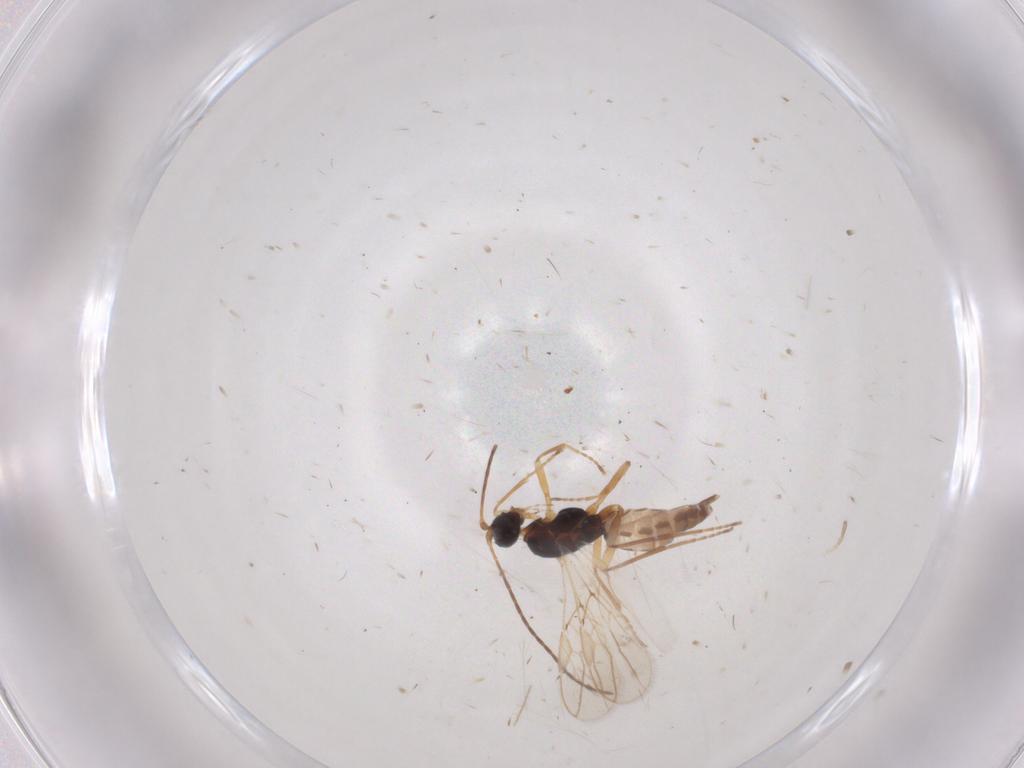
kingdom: Animalia
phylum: Arthropoda
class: Insecta
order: Hymenoptera
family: Braconidae
